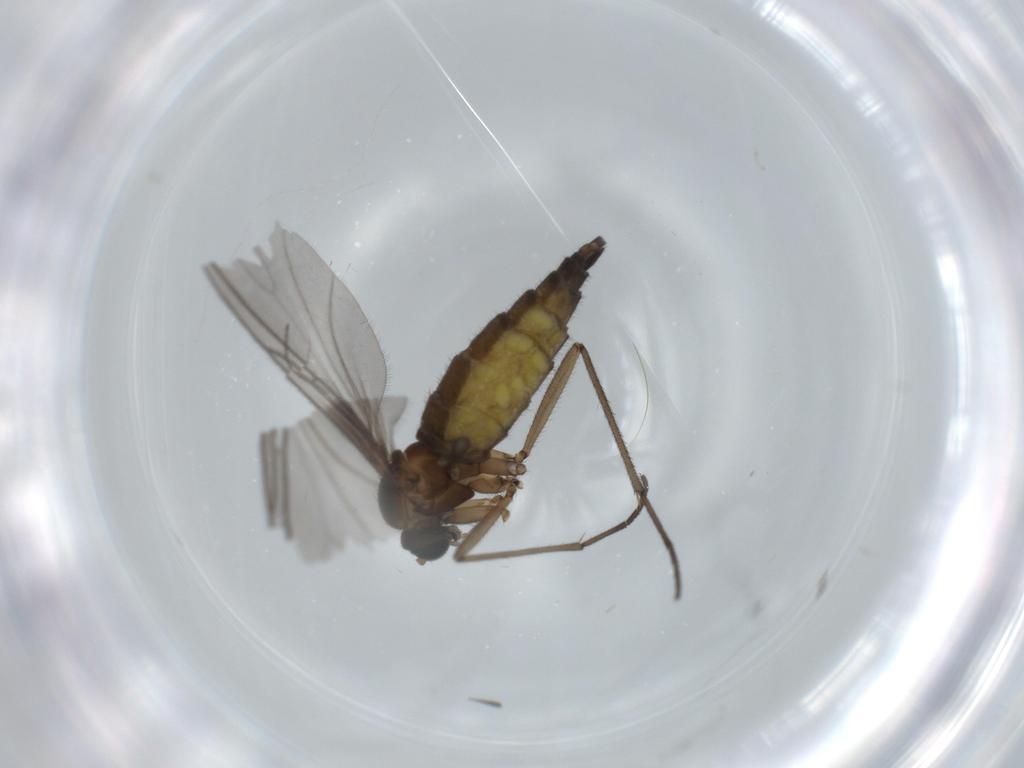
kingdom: Animalia
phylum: Arthropoda
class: Insecta
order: Diptera
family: Sciaridae
